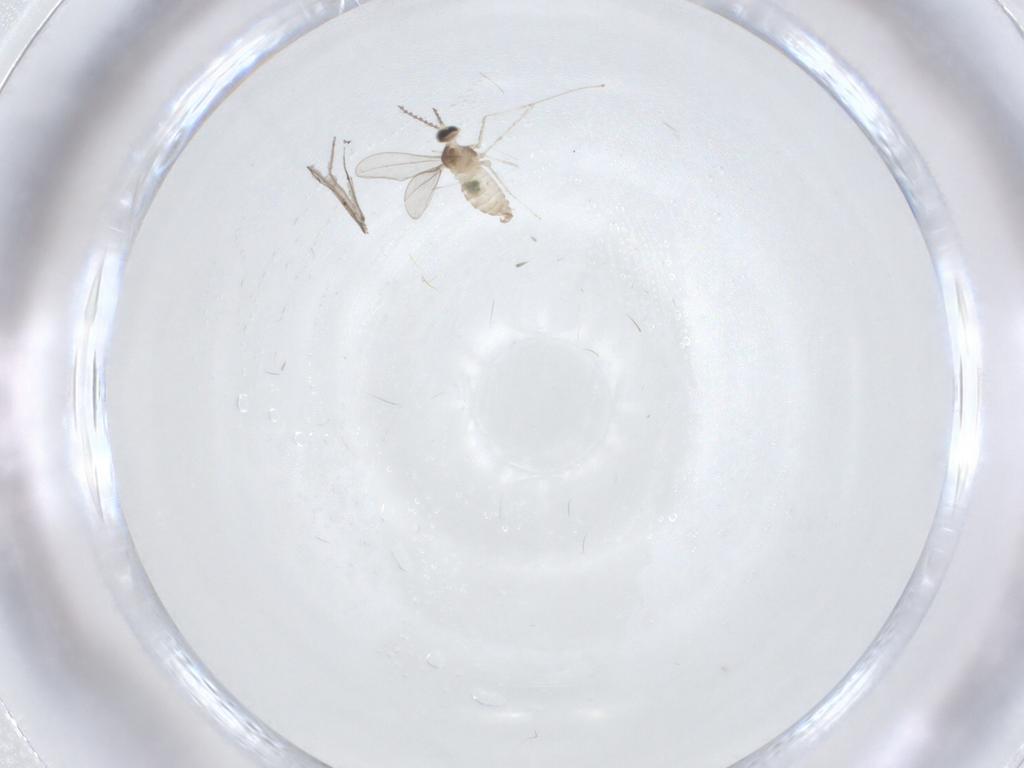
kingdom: Animalia
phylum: Arthropoda
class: Insecta
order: Diptera
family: Cecidomyiidae
